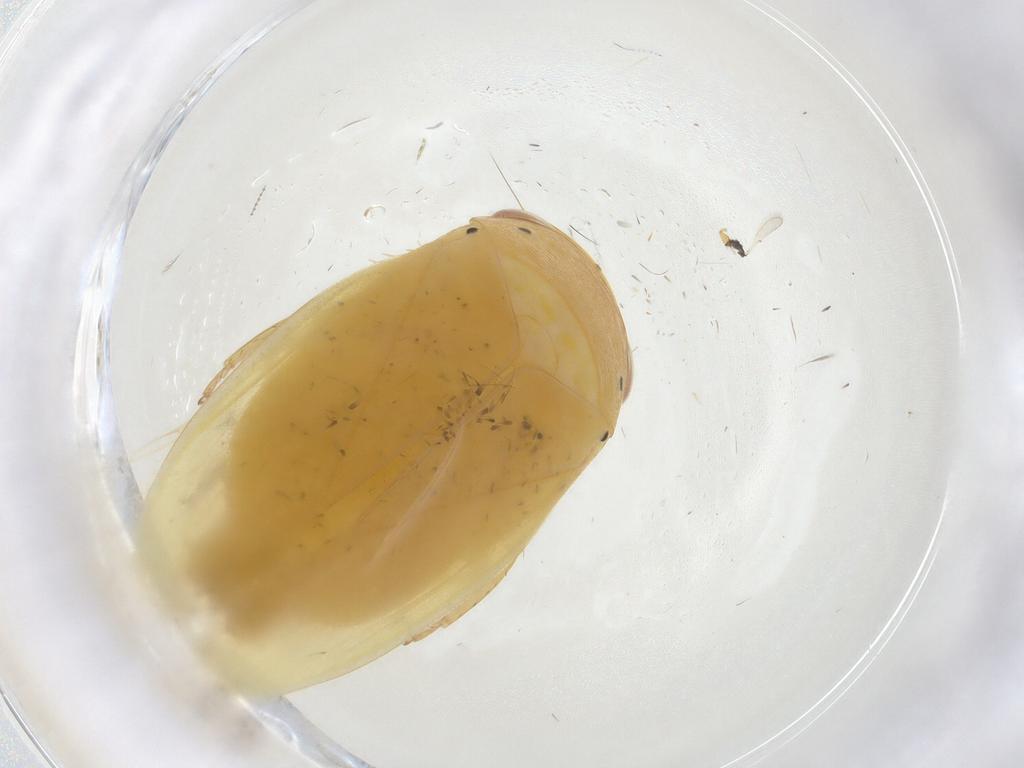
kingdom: Animalia
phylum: Arthropoda
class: Insecta
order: Hemiptera
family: Cicadellidae
